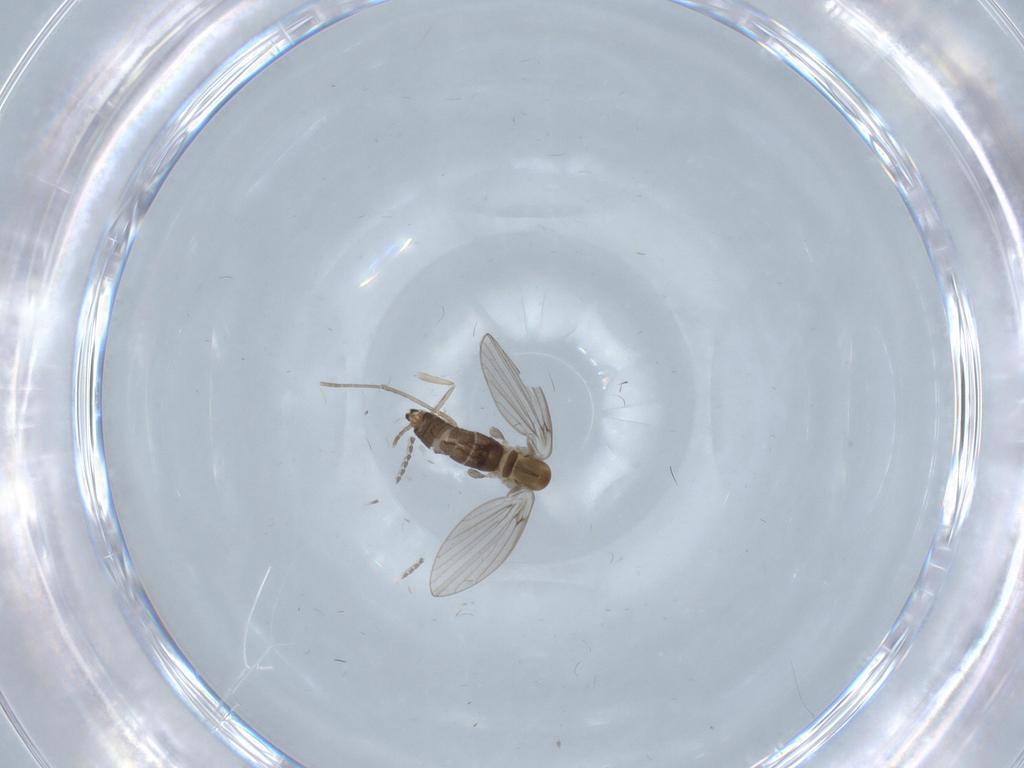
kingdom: Animalia
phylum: Arthropoda
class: Insecta
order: Diptera
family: Psychodidae
